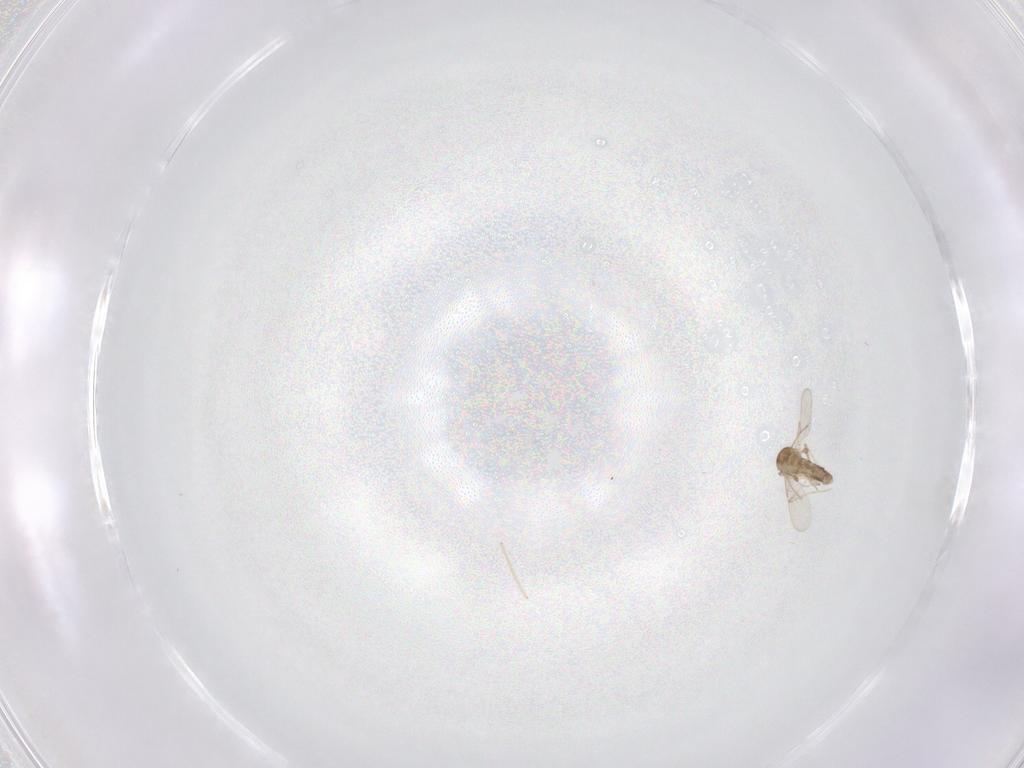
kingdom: Animalia
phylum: Arthropoda
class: Insecta
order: Diptera
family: Ceratopogonidae
